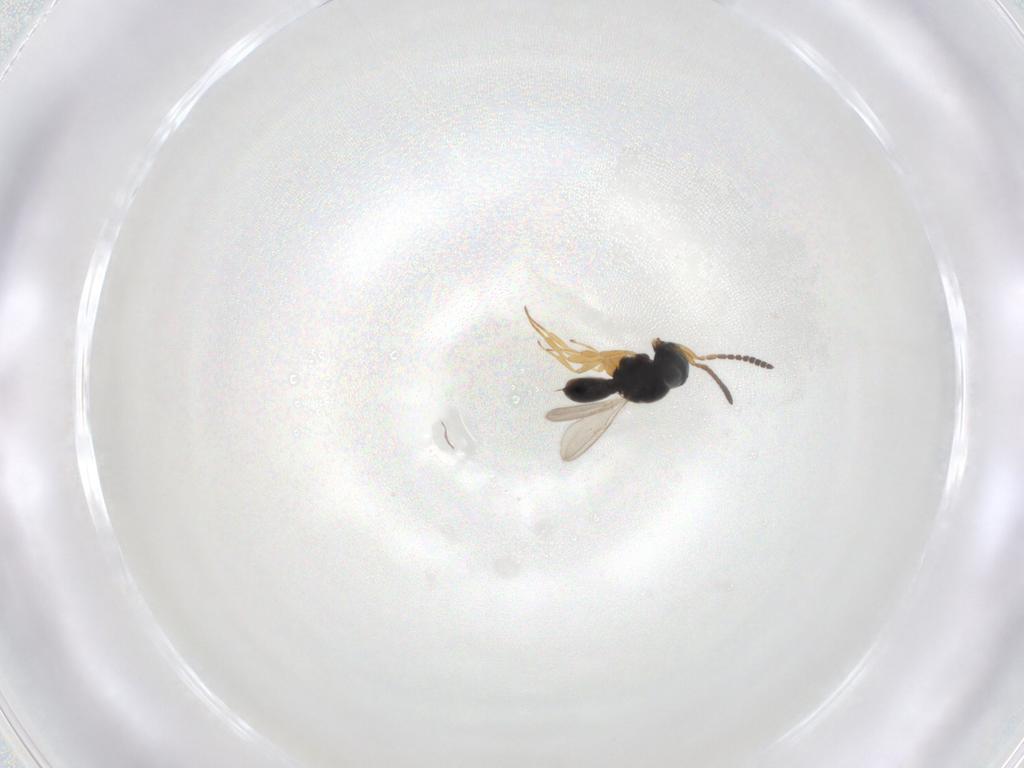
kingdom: Animalia
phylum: Arthropoda
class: Insecta
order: Hymenoptera
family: Scelionidae
